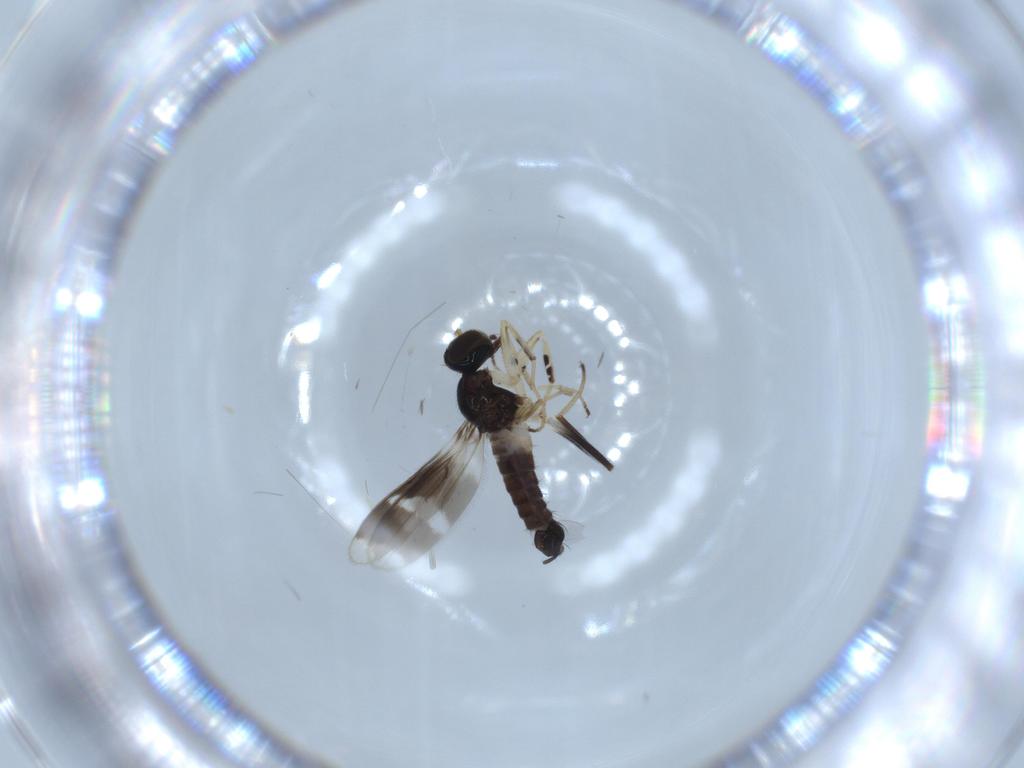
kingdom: Animalia
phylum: Arthropoda
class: Insecta
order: Diptera
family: Hybotidae
